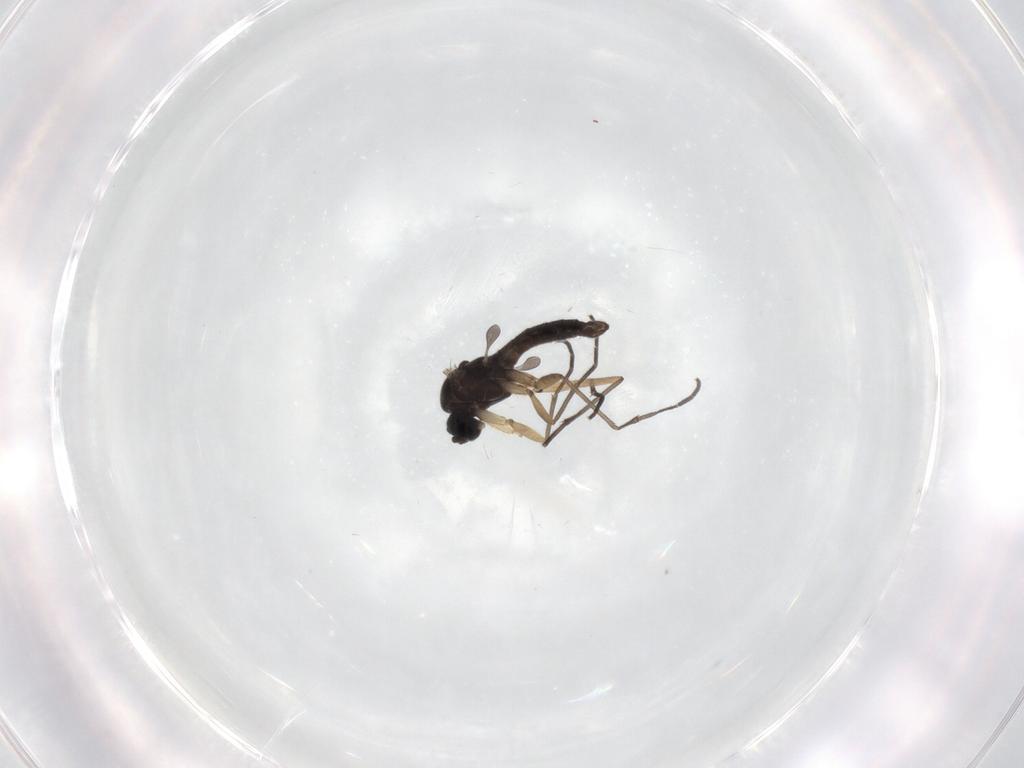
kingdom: Animalia
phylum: Arthropoda
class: Insecta
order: Diptera
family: Sciaridae
